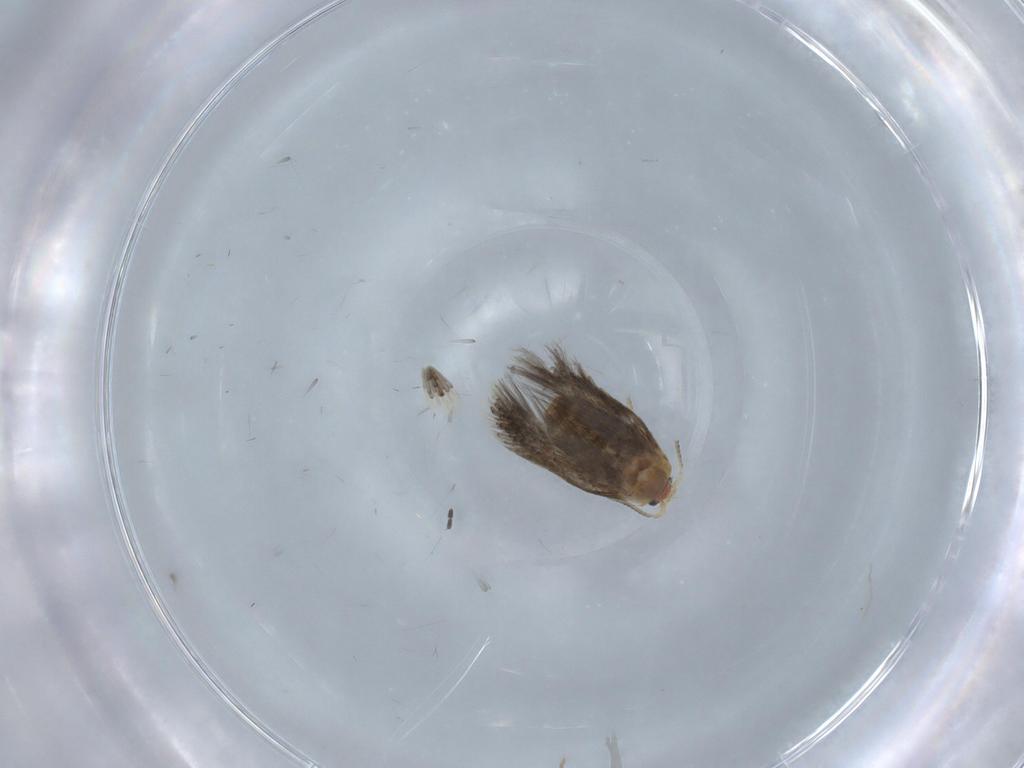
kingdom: Animalia
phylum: Arthropoda
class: Insecta
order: Lepidoptera
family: Nepticulidae
